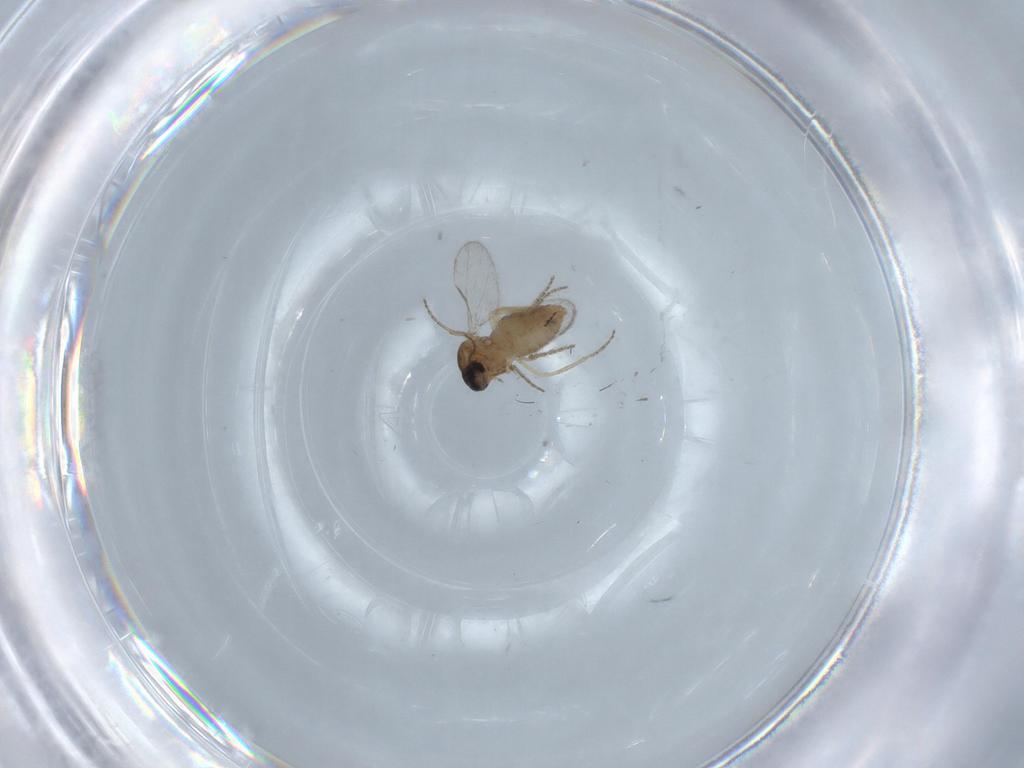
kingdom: Animalia
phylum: Arthropoda
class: Insecta
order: Diptera
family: Ceratopogonidae
